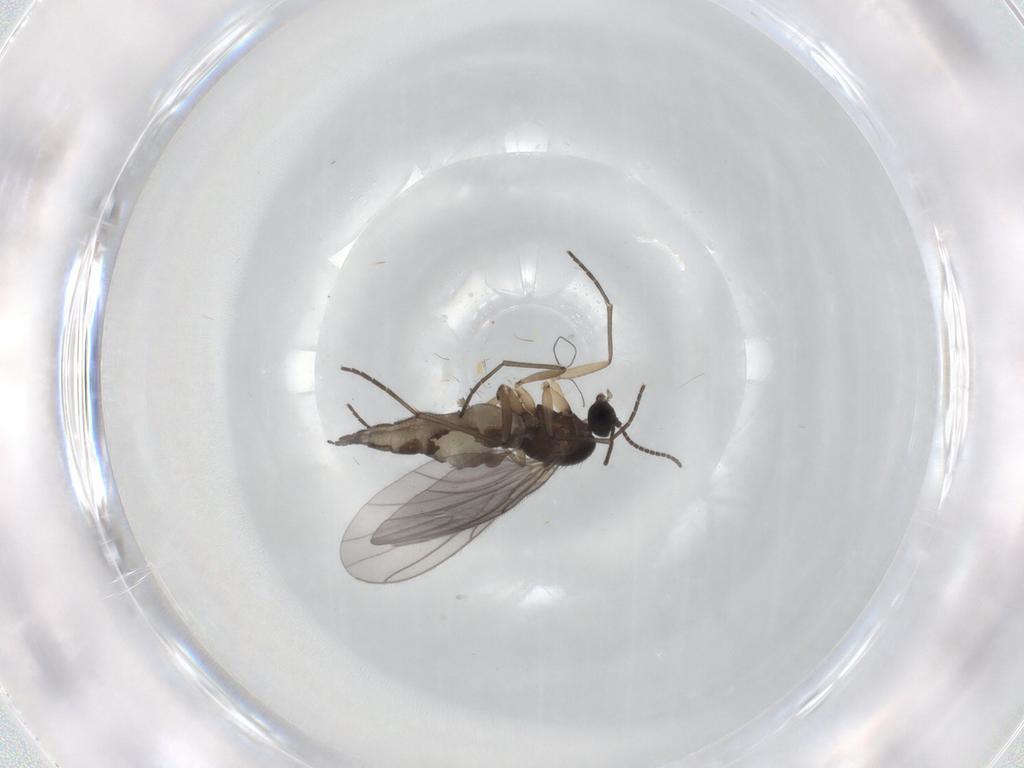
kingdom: Animalia
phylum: Arthropoda
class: Insecta
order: Diptera
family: Sciaridae
